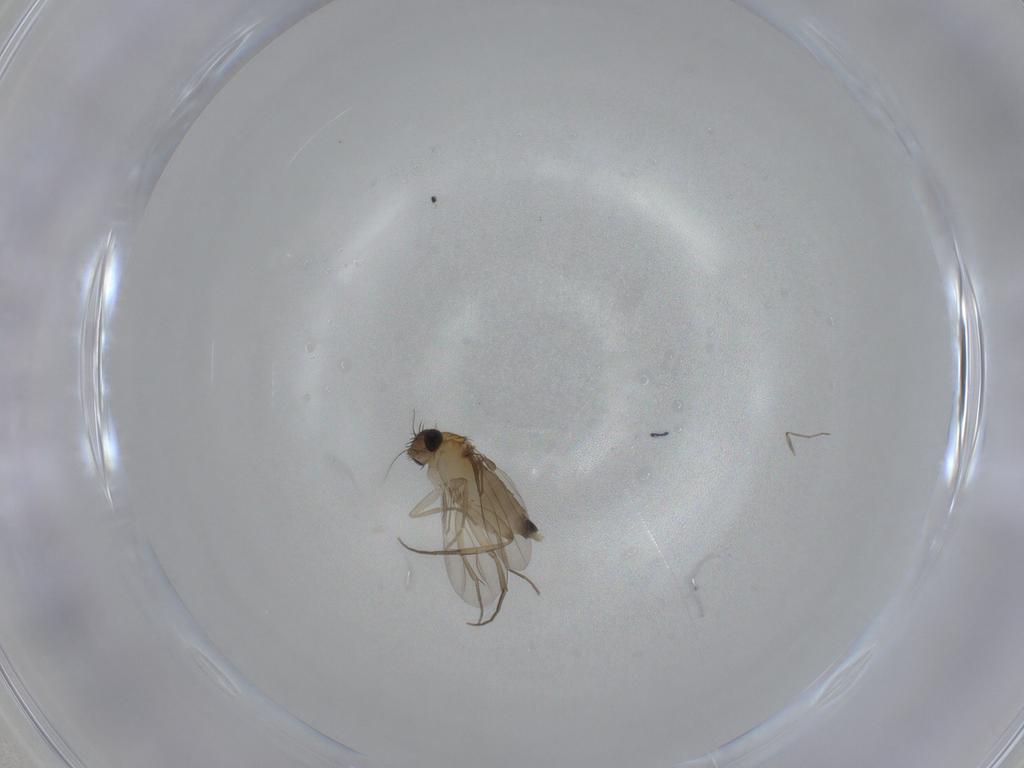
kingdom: Animalia
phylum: Arthropoda
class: Insecta
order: Diptera
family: Phoridae
